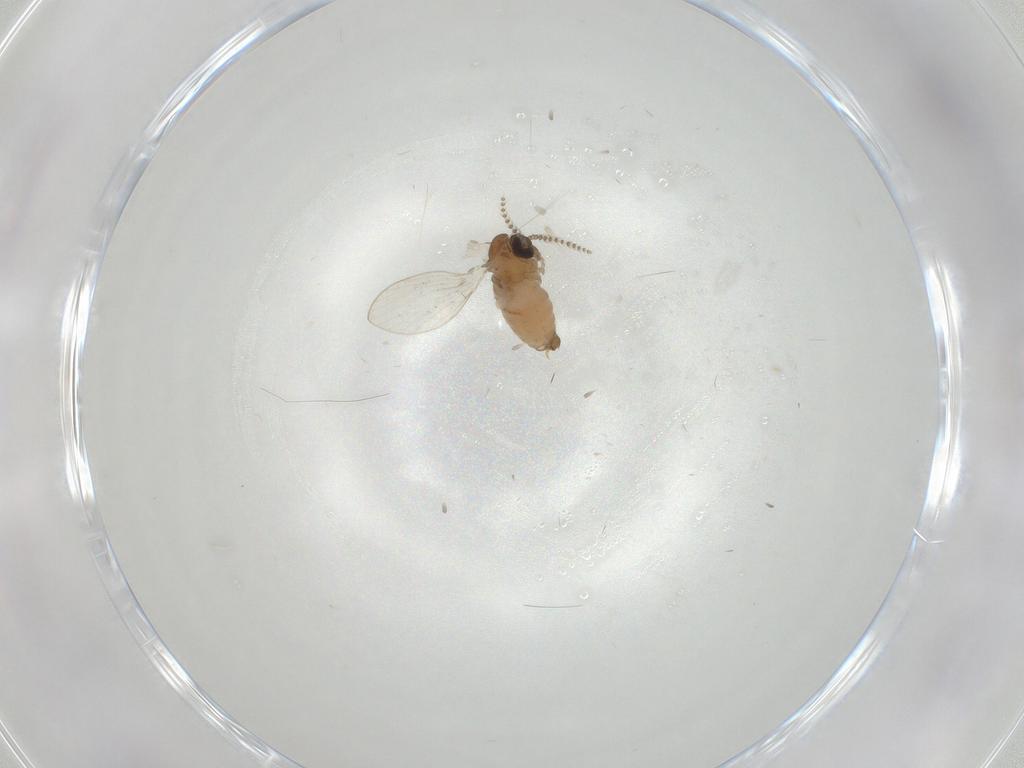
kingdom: Animalia
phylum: Arthropoda
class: Insecta
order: Diptera
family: Psychodidae
